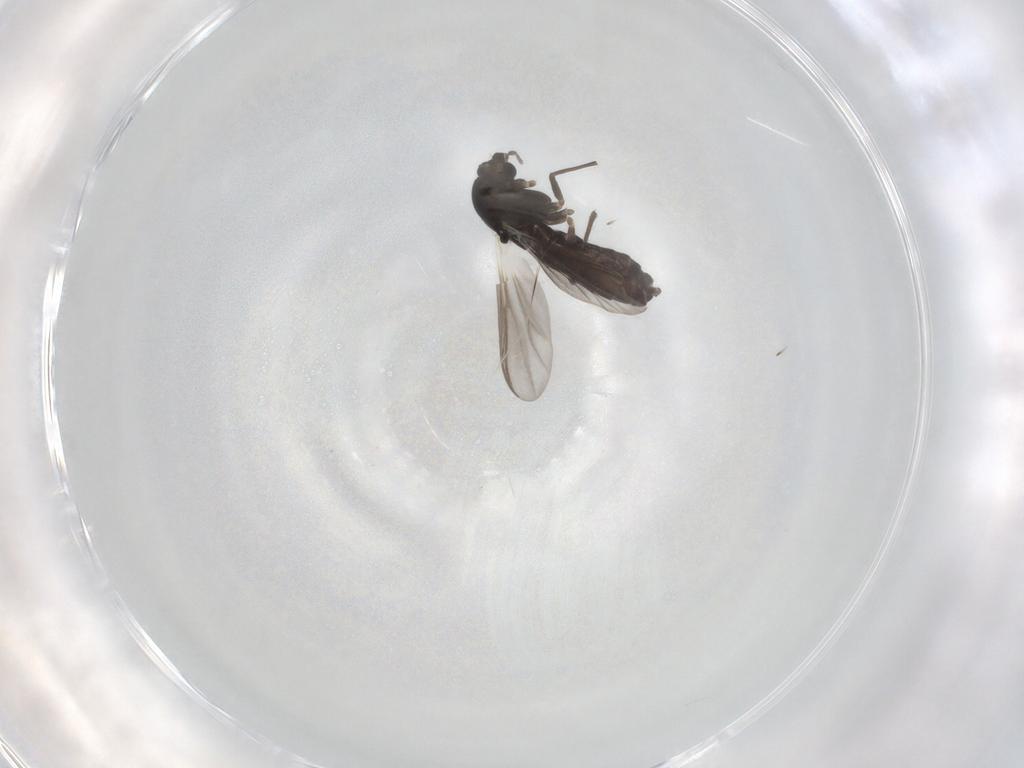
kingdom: Animalia
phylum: Arthropoda
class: Insecta
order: Diptera
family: Chironomidae
